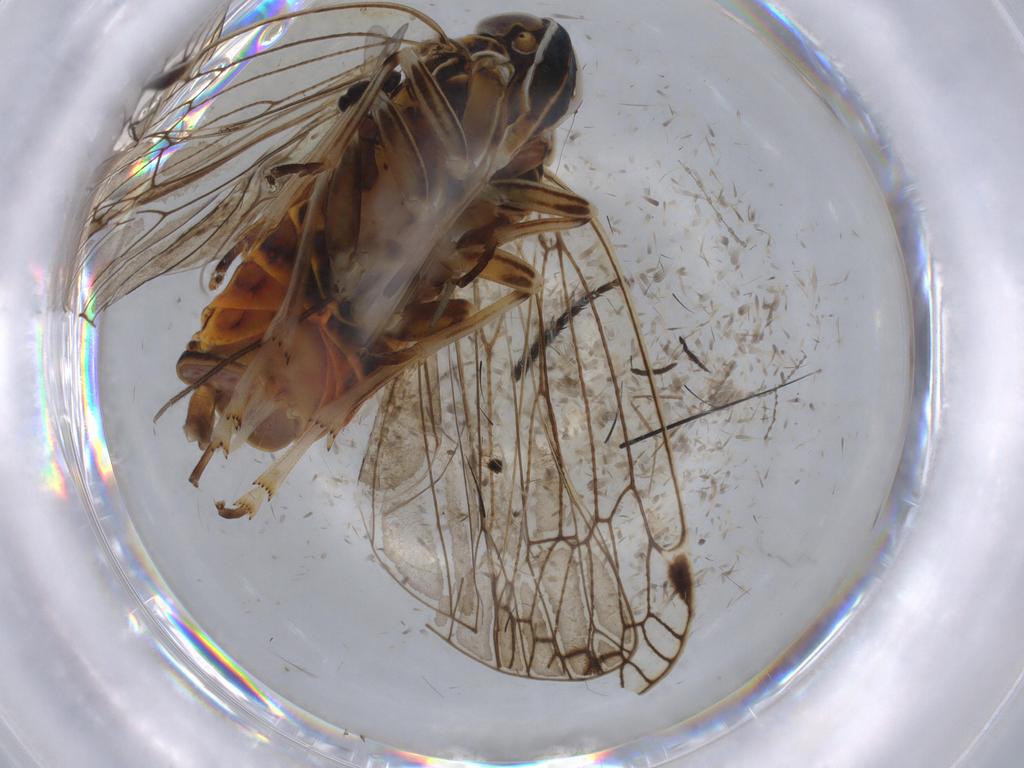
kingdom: Animalia
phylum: Arthropoda
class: Insecta
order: Hemiptera
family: Cixiidae
